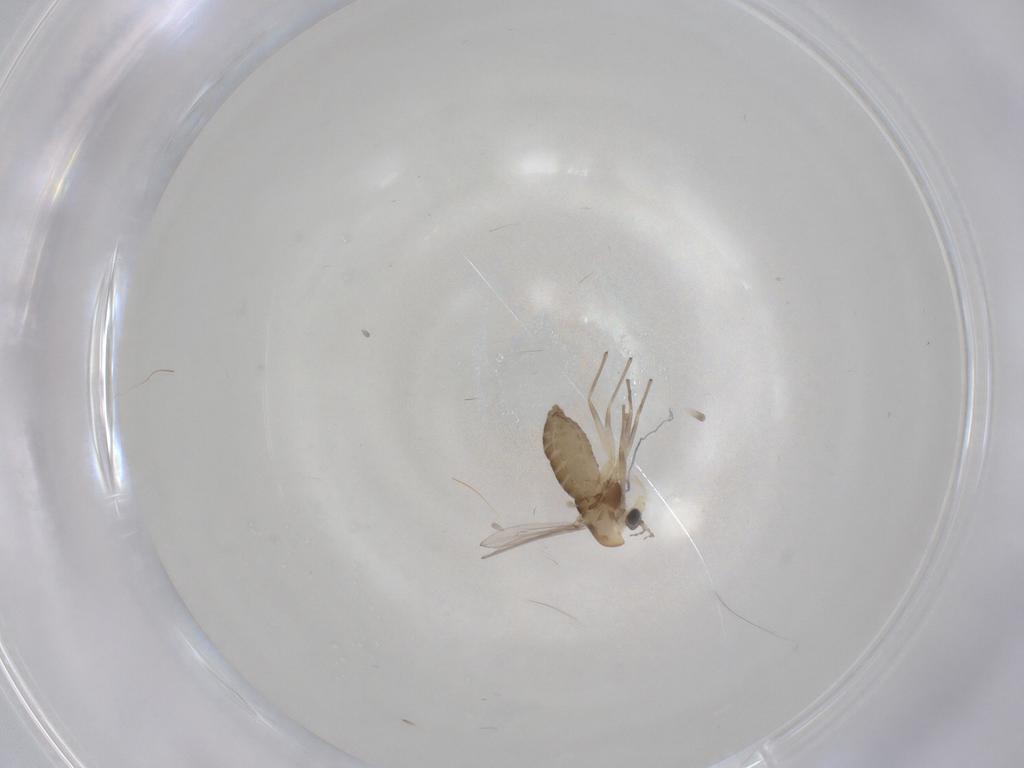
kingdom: Animalia
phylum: Arthropoda
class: Insecta
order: Diptera
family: Chironomidae
